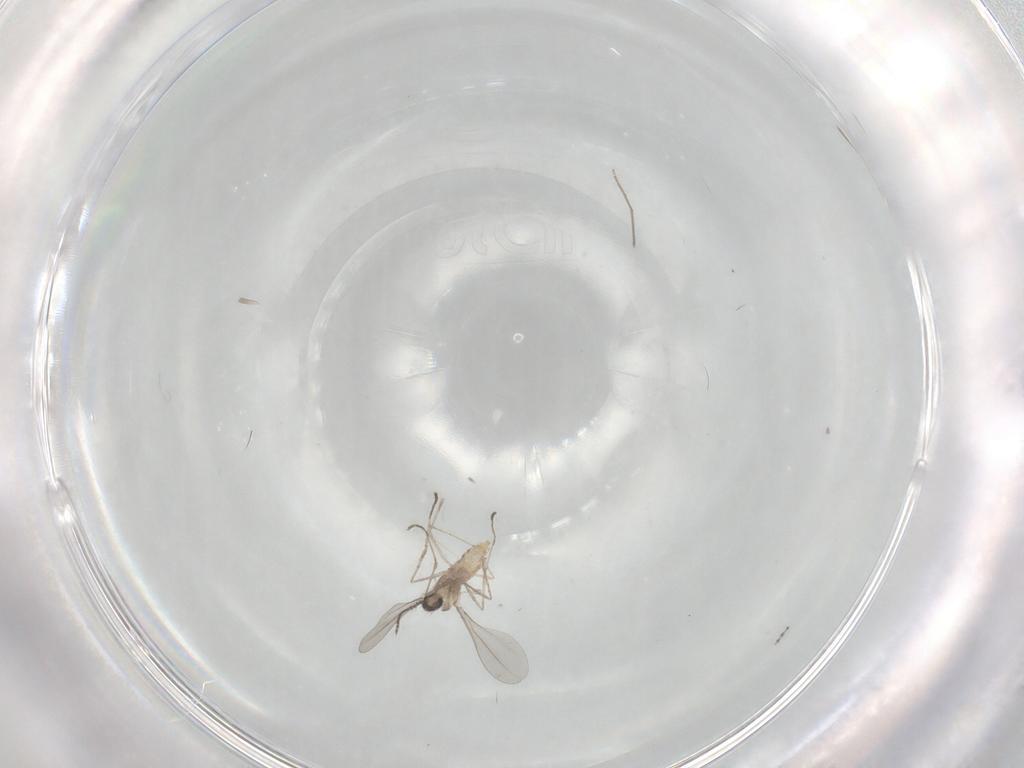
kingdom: Animalia
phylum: Arthropoda
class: Insecta
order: Diptera
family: Cecidomyiidae
